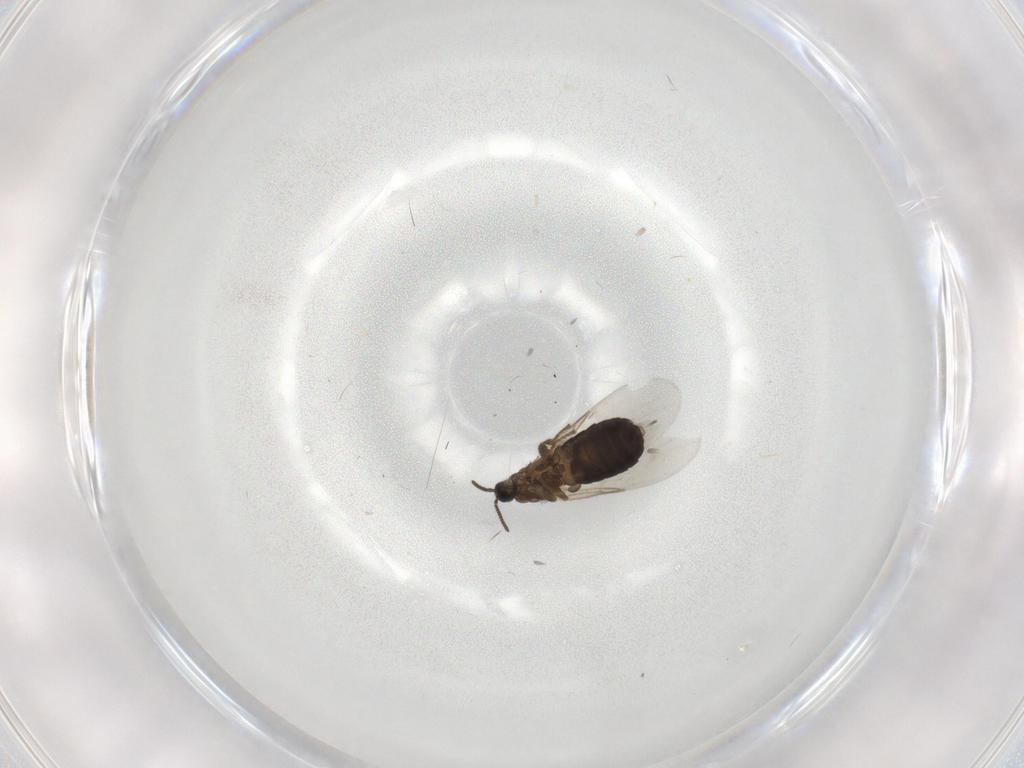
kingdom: Animalia
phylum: Arthropoda
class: Insecta
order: Diptera
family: Scatopsidae
